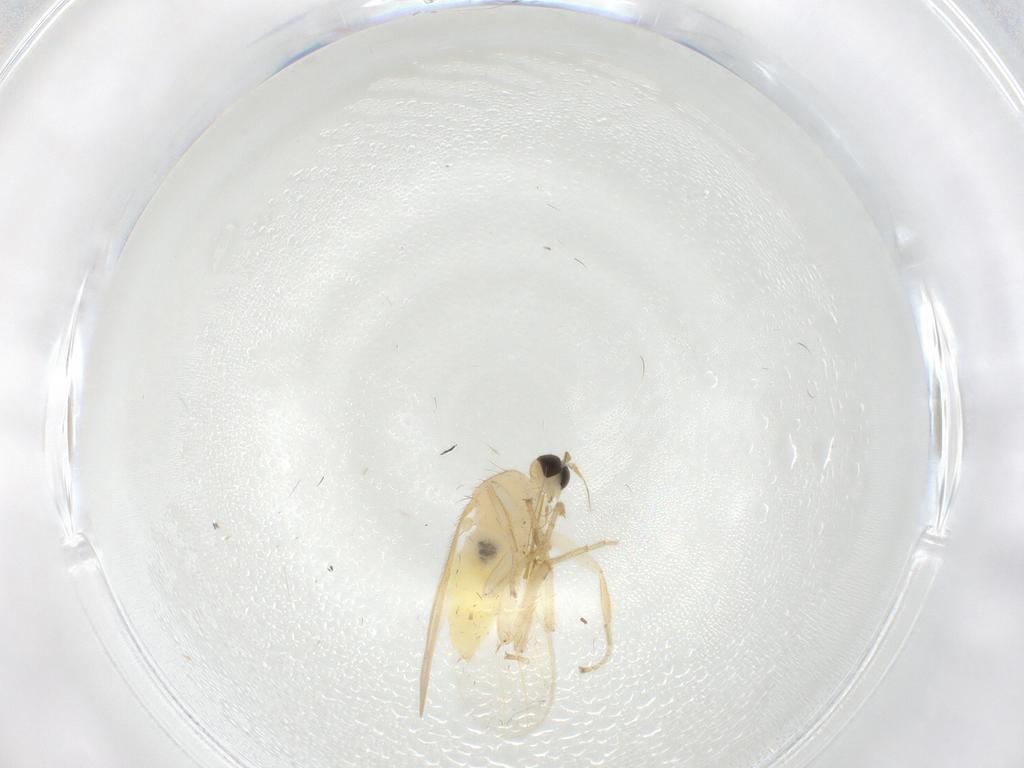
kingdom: Animalia
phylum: Arthropoda
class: Insecta
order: Diptera
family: Hybotidae
